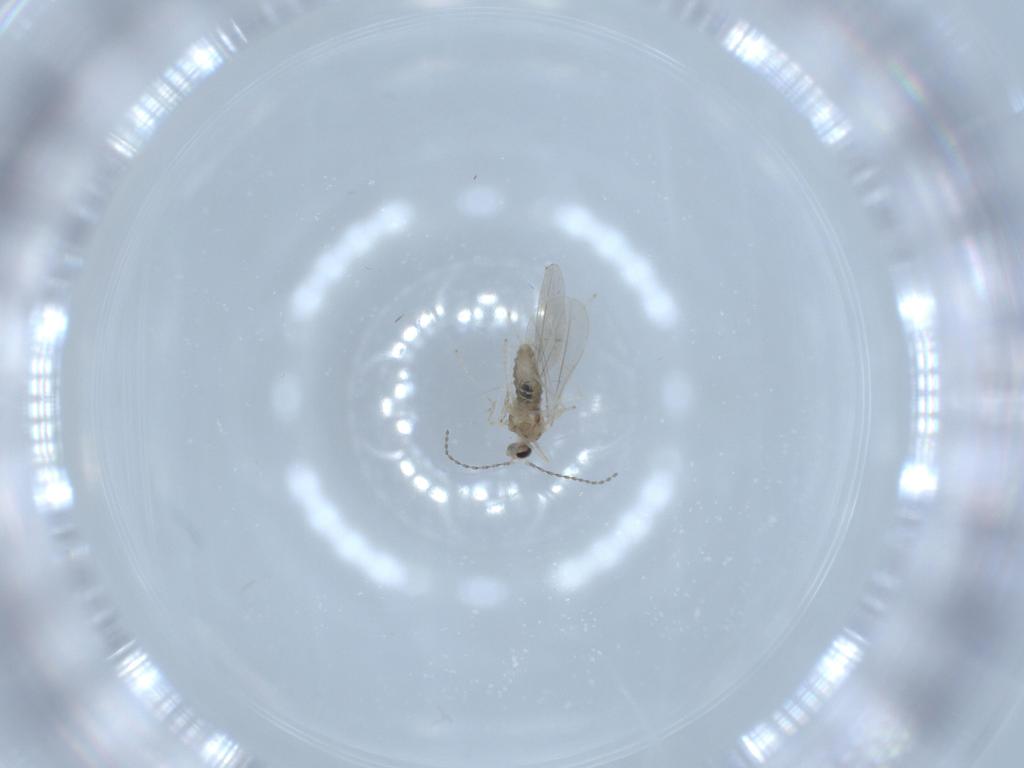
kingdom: Animalia
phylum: Arthropoda
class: Insecta
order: Diptera
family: Cecidomyiidae
